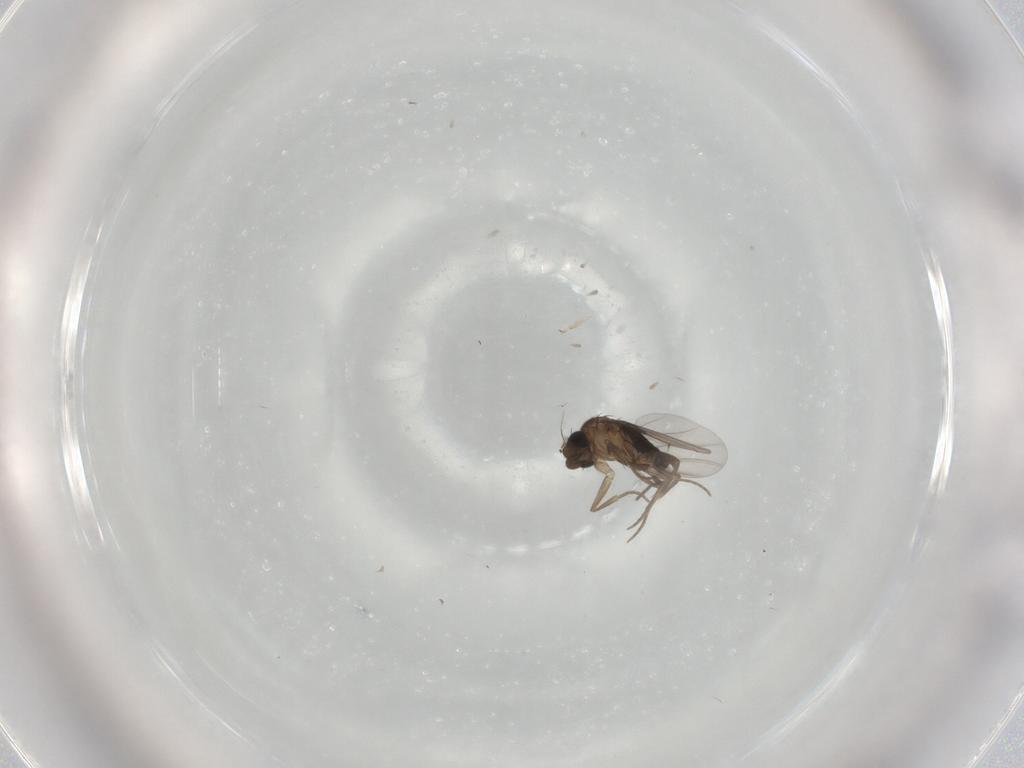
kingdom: Animalia
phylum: Arthropoda
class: Insecta
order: Diptera
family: Phoridae
